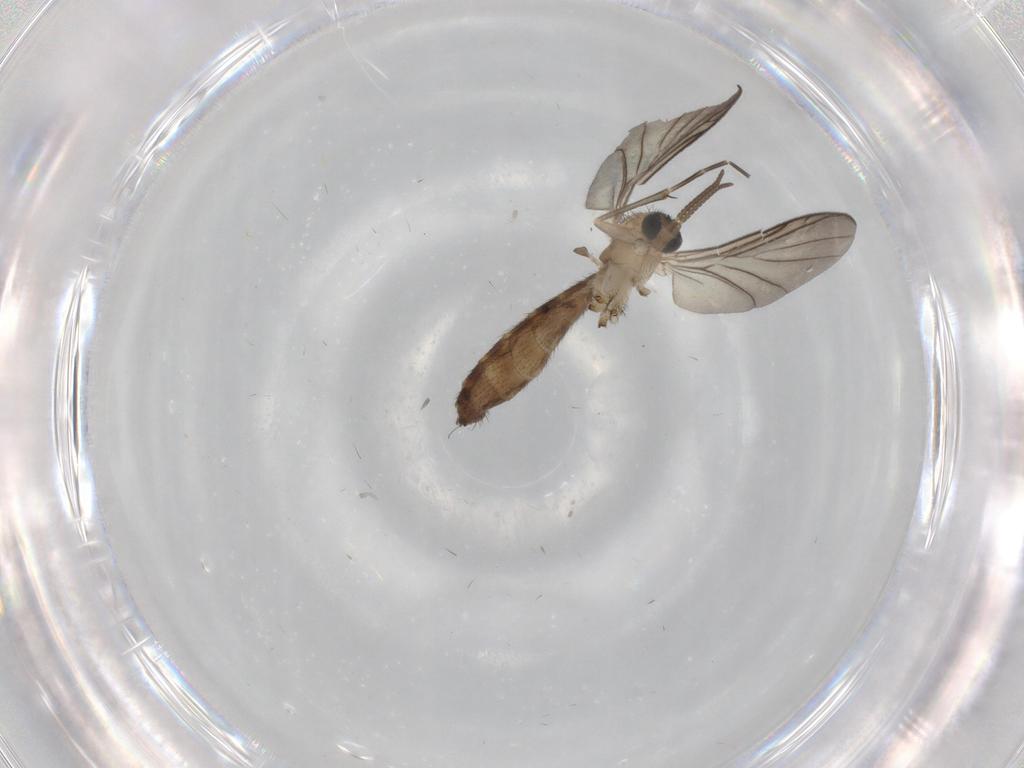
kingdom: Animalia
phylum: Arthropoda
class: Insecta
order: Diptera
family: Keroplatidae
